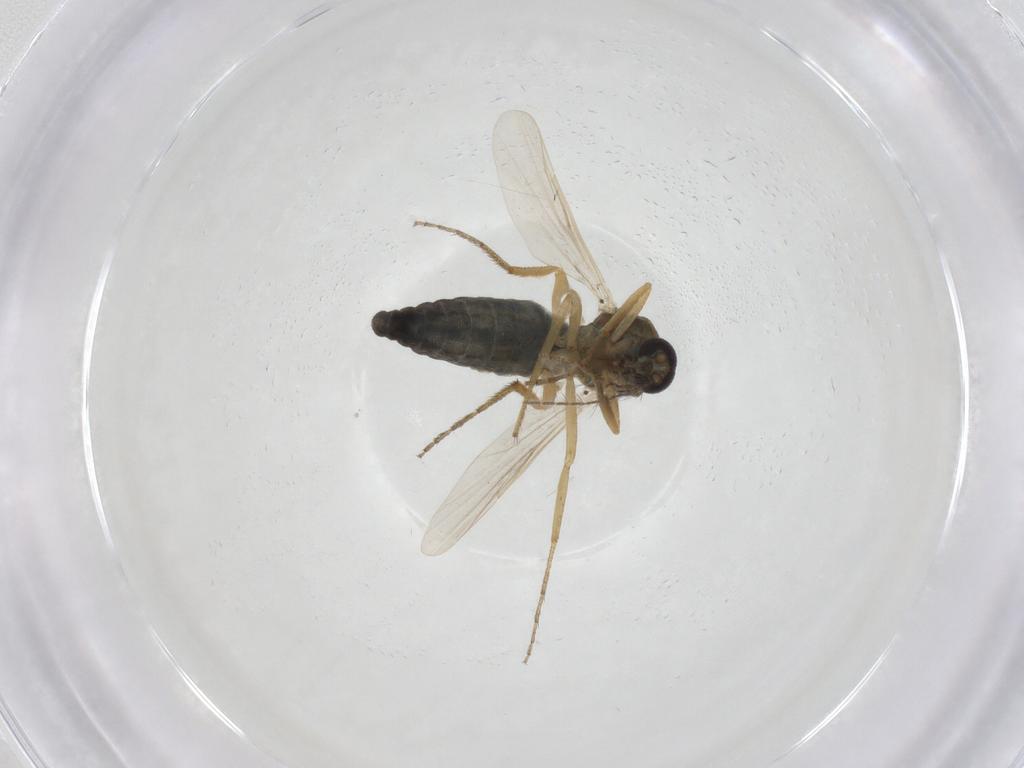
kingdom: Animalia
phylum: Arthropoda
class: Insecta
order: Diptera
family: Ceratopogonidae
